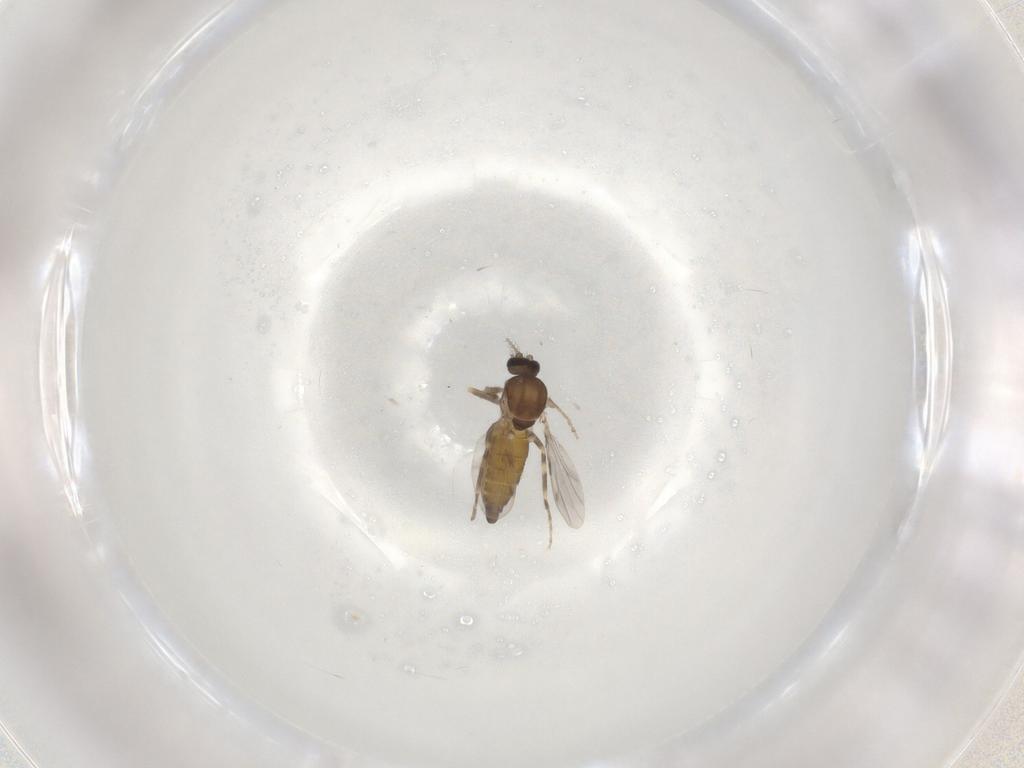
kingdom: Animalia
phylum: Arthropoda
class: Insecta
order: Diptera
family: Ceratopogonidae
